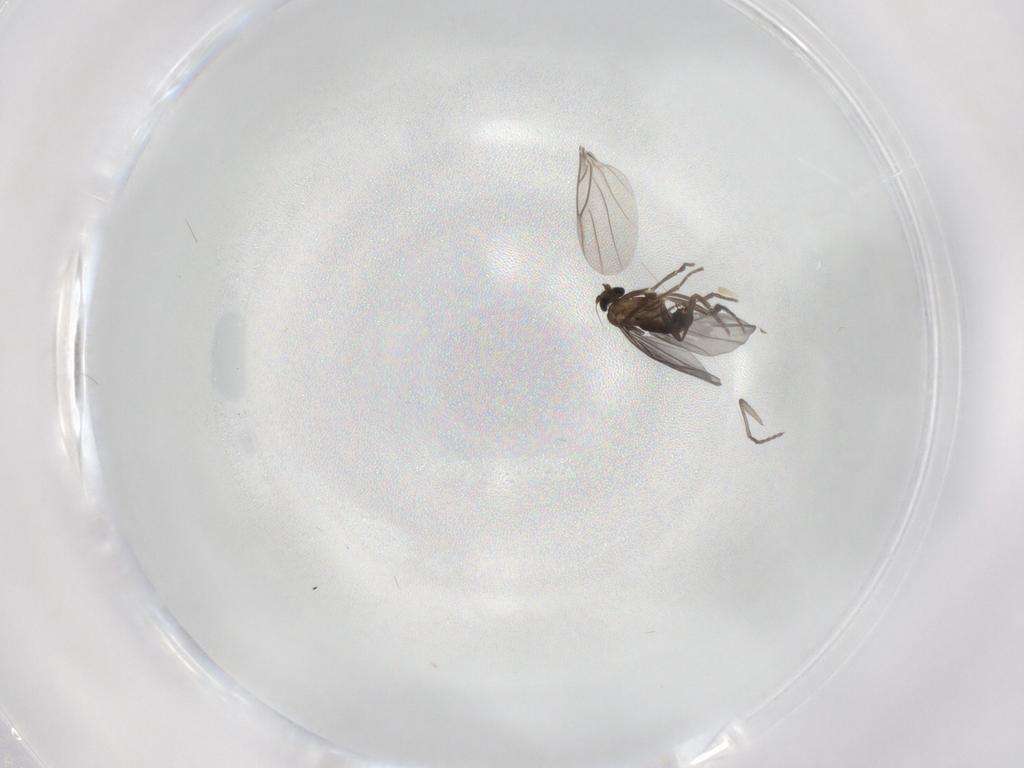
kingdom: Animalia
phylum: Arthropoda
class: Insecta
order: Diptera
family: Phoridae
